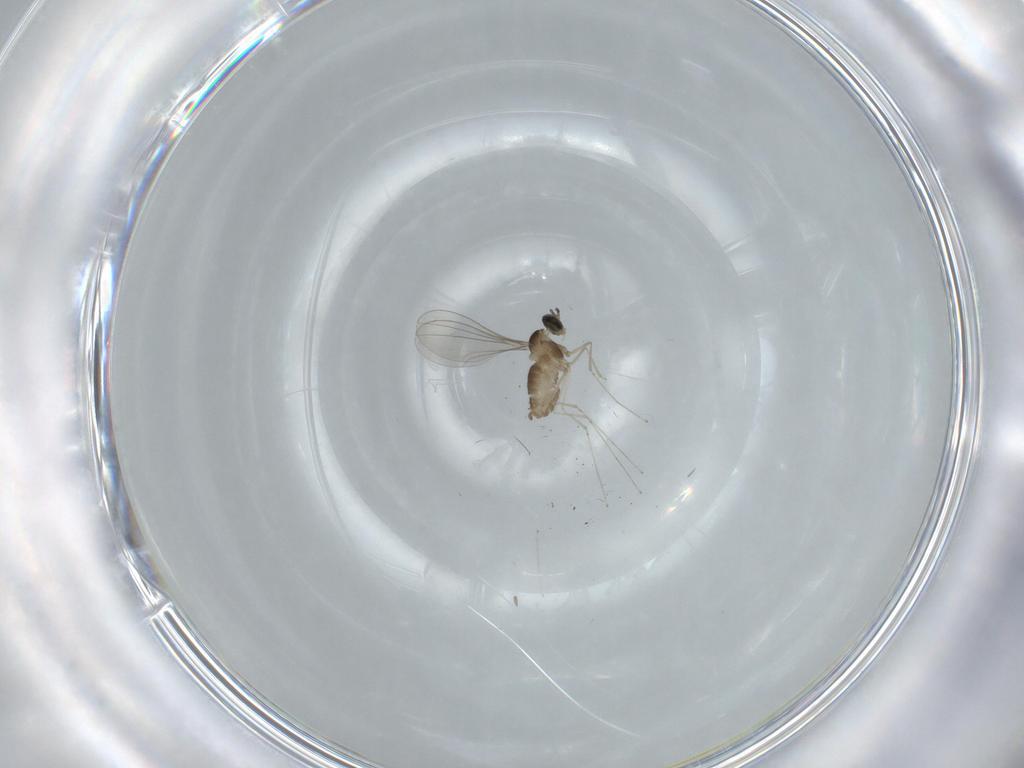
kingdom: Animalia
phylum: Arthropoda
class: Insecta
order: Diptera
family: Cecidomyiidae
